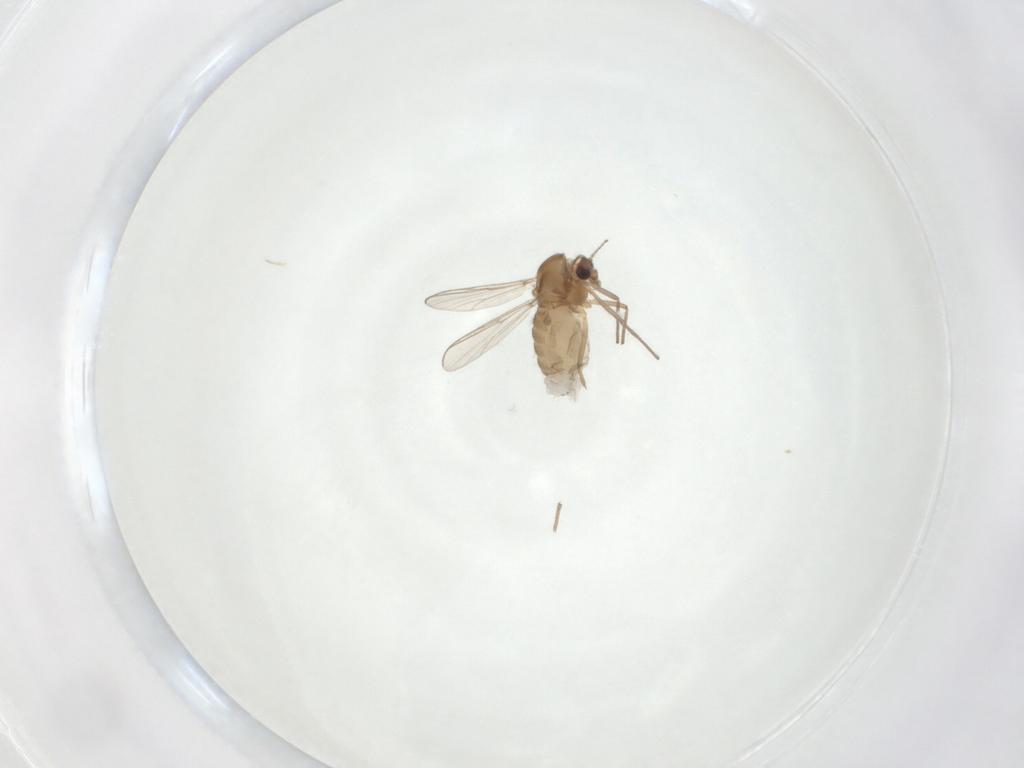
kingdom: Animalia
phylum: Arthropoda
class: Insecta
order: Diptera
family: Chironomidae
